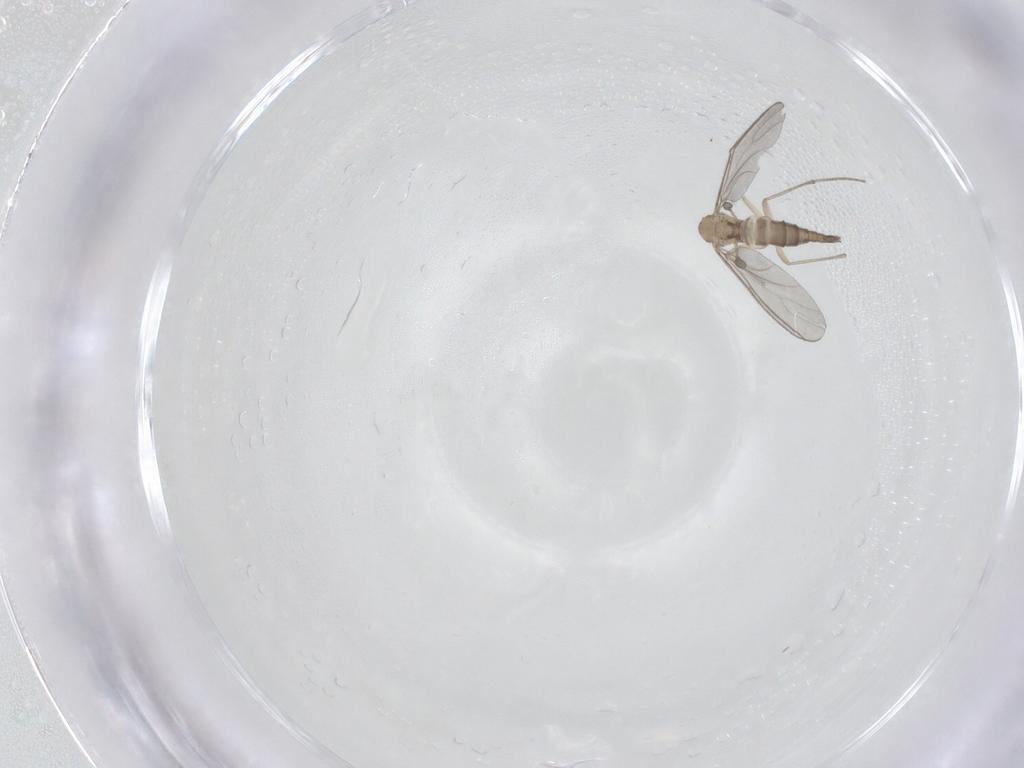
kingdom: Animalia
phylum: Arthropoda
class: Insecta
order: Diptera
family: Sciaridae
